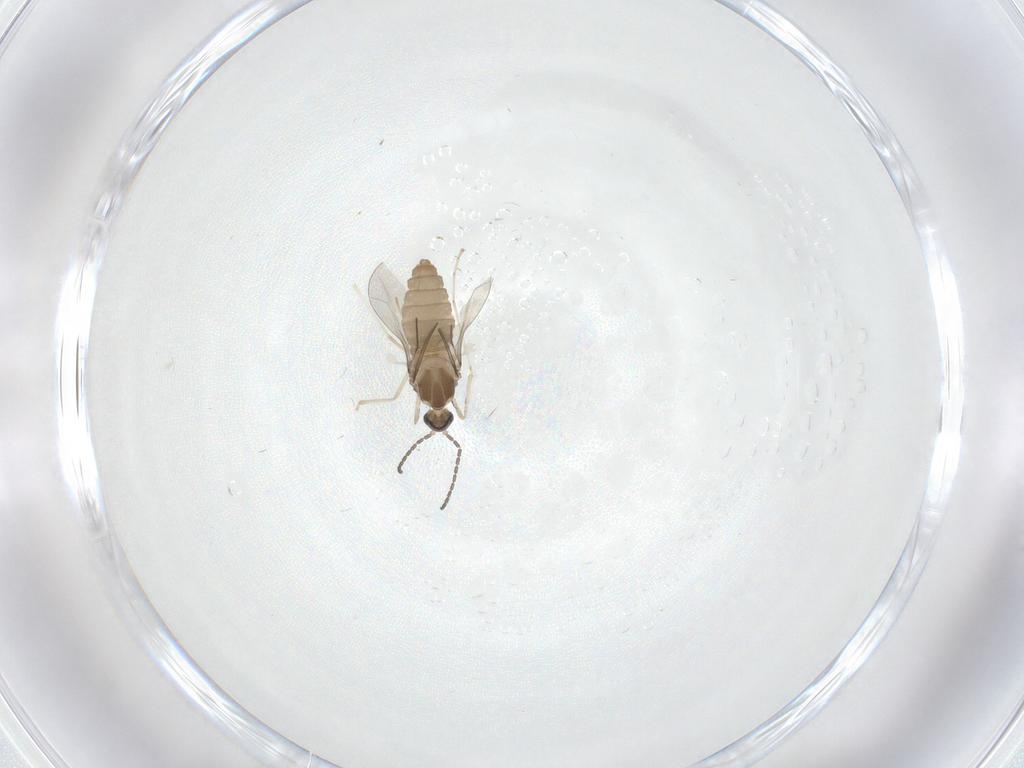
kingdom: Animalia
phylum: Arthropoda
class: Insecta
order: Diptera
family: Cecidomyiidae
